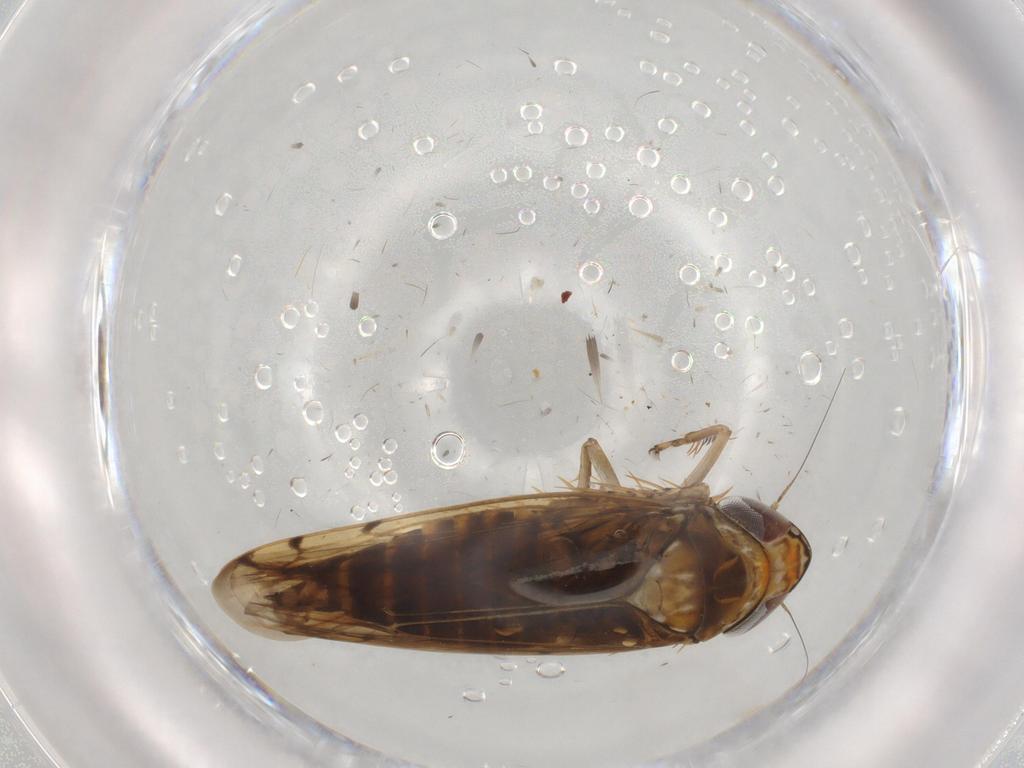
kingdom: Animalia
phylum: Arthropoda
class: Insecta
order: Hemiptera
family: Cicadellidae
